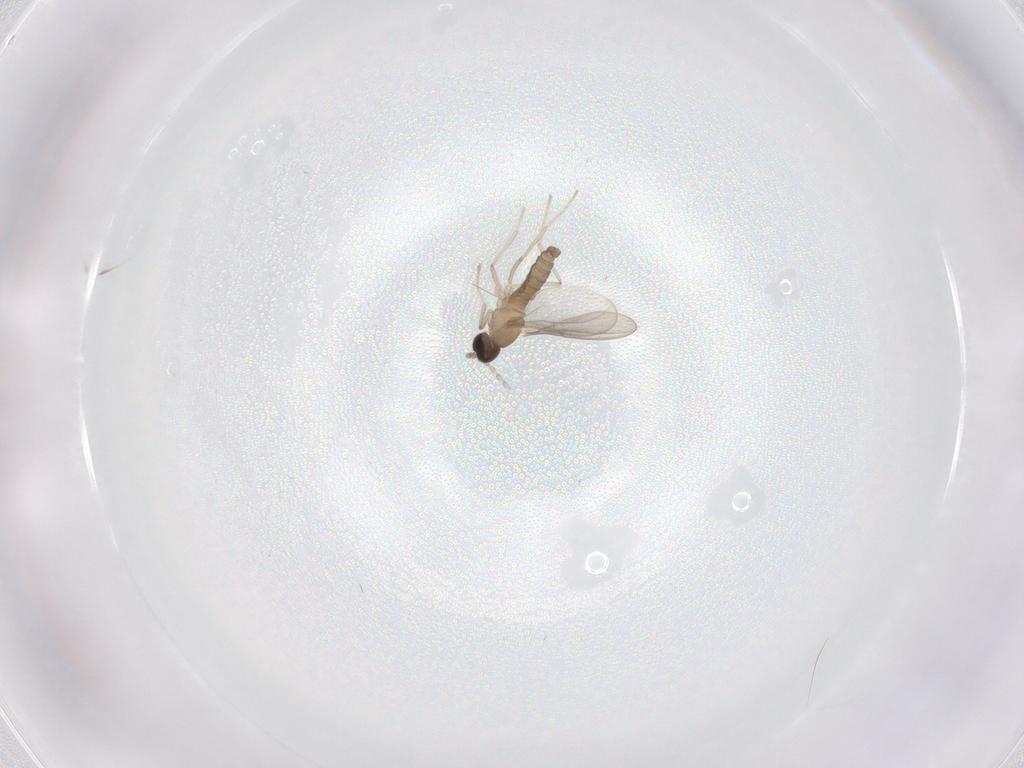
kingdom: Animalia
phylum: Arthropoda
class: Insecta
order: Diptera
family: Cecidomyiidae
